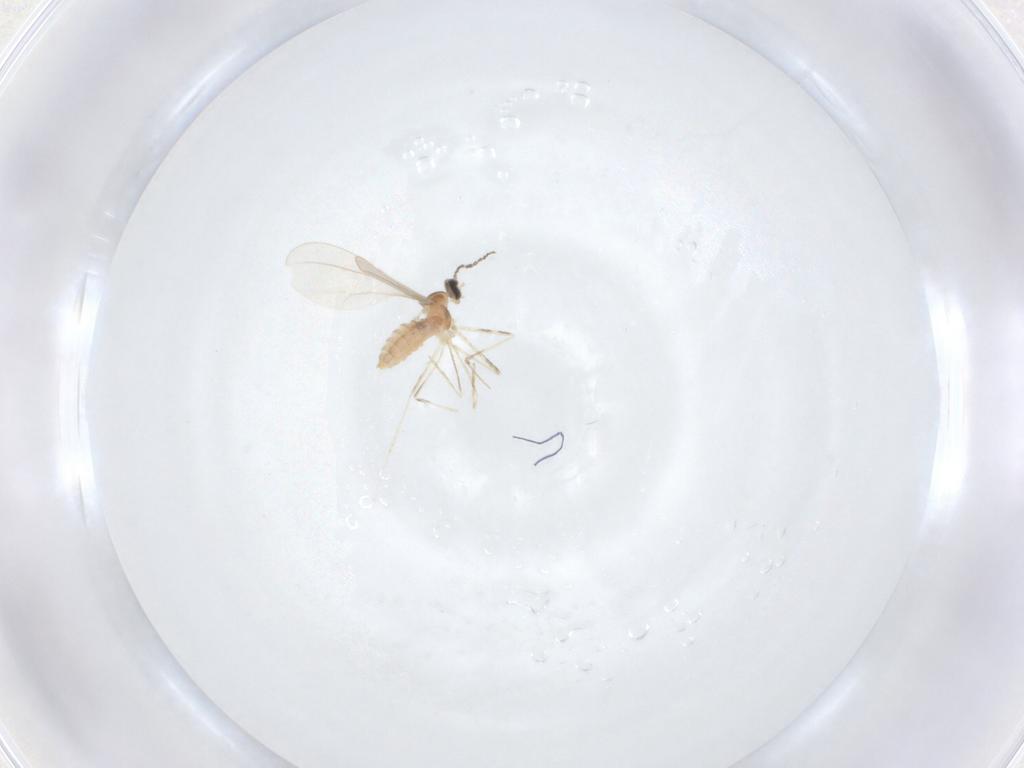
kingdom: Animalia
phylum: Arthropoda
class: Insecta
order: Diptera
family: Cecidomyiidae
